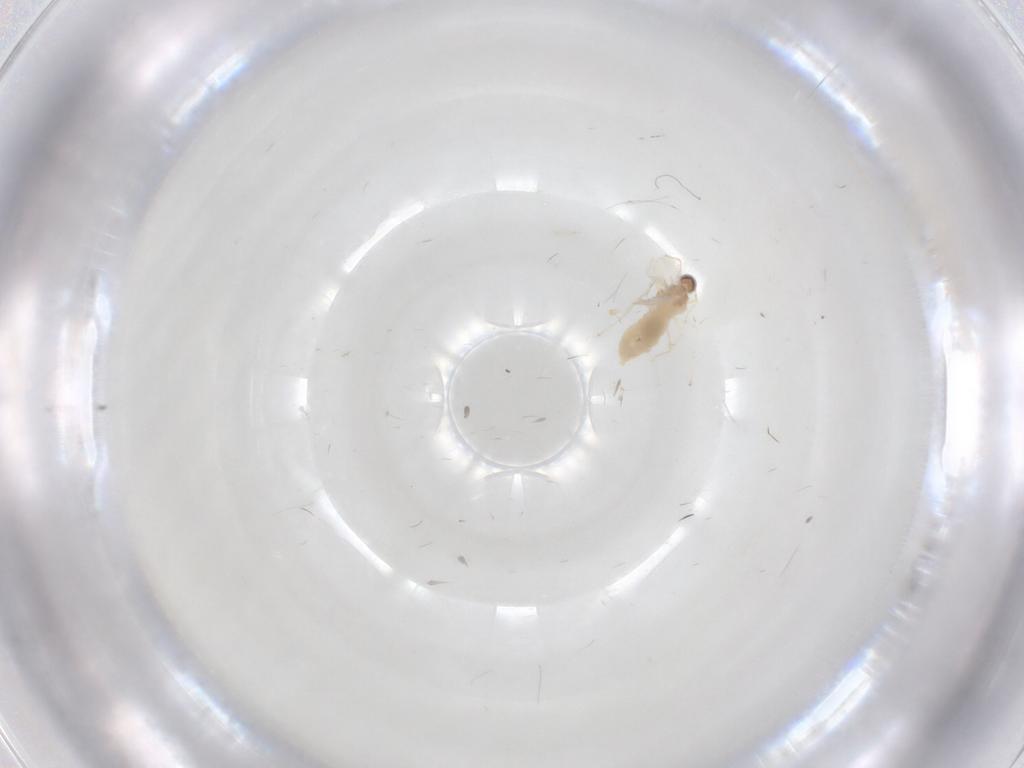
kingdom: Animalia
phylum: Arthropoda
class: Insecta
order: Diptera
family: Cecidomyiidae
